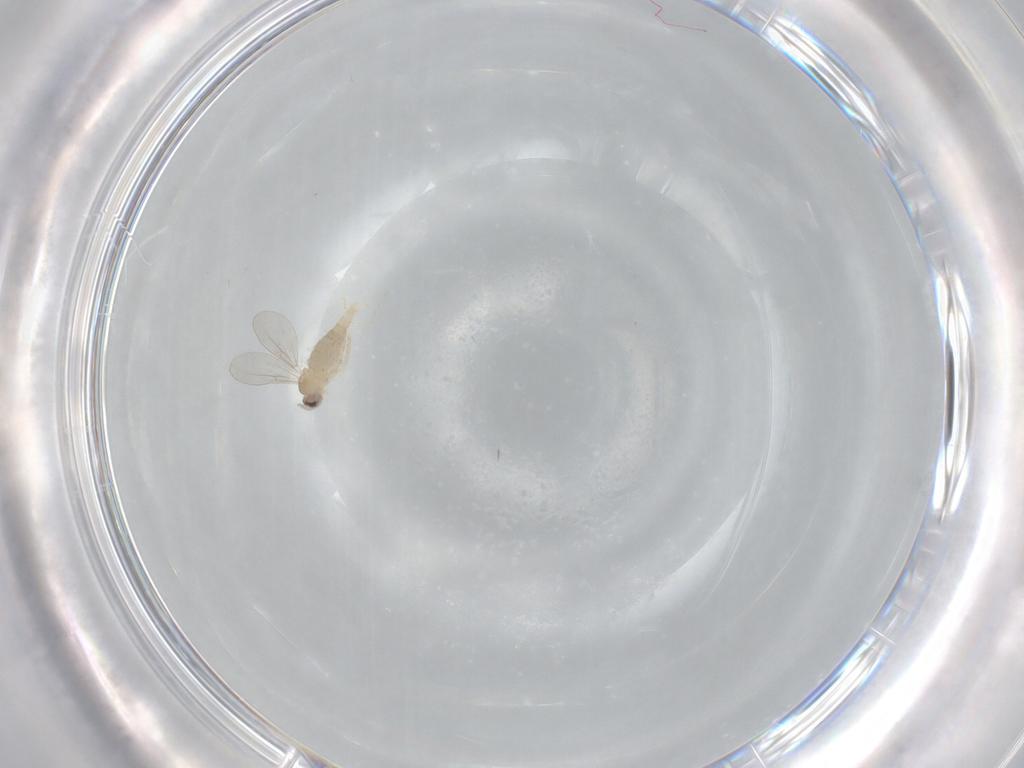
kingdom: Animalia
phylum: Arthropoda
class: Insecta
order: Diptera
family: Cecidomyiidae
